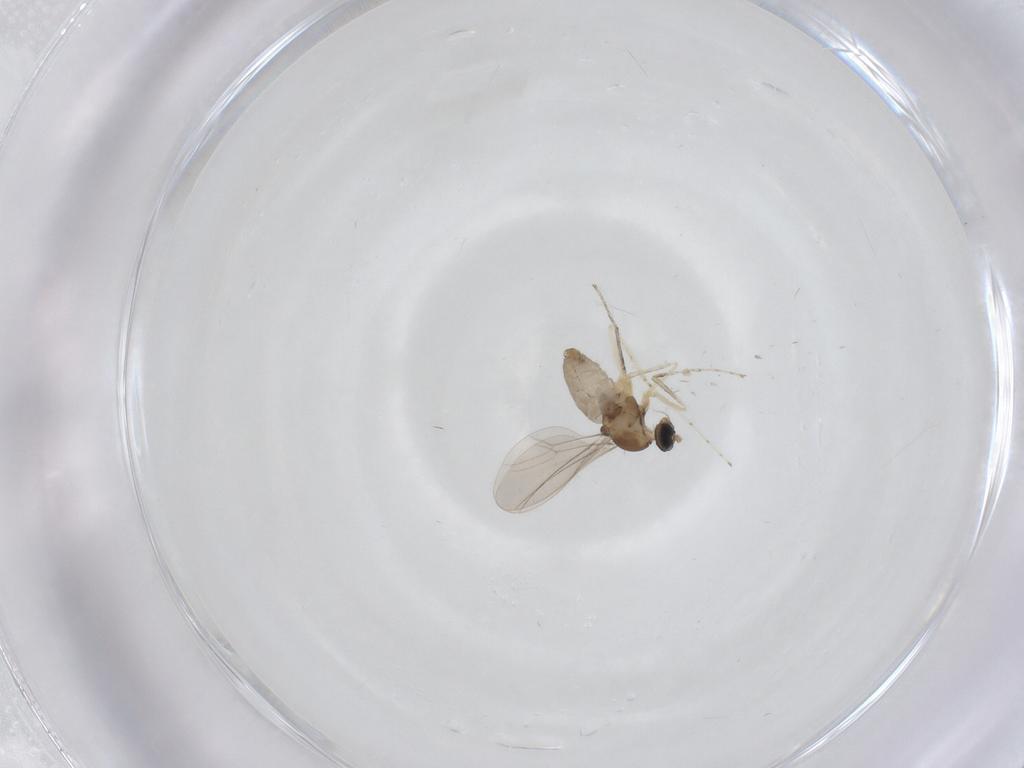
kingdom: Animalia
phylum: Arthropoda
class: Insecta
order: Diptera
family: Cecidomyiidae
